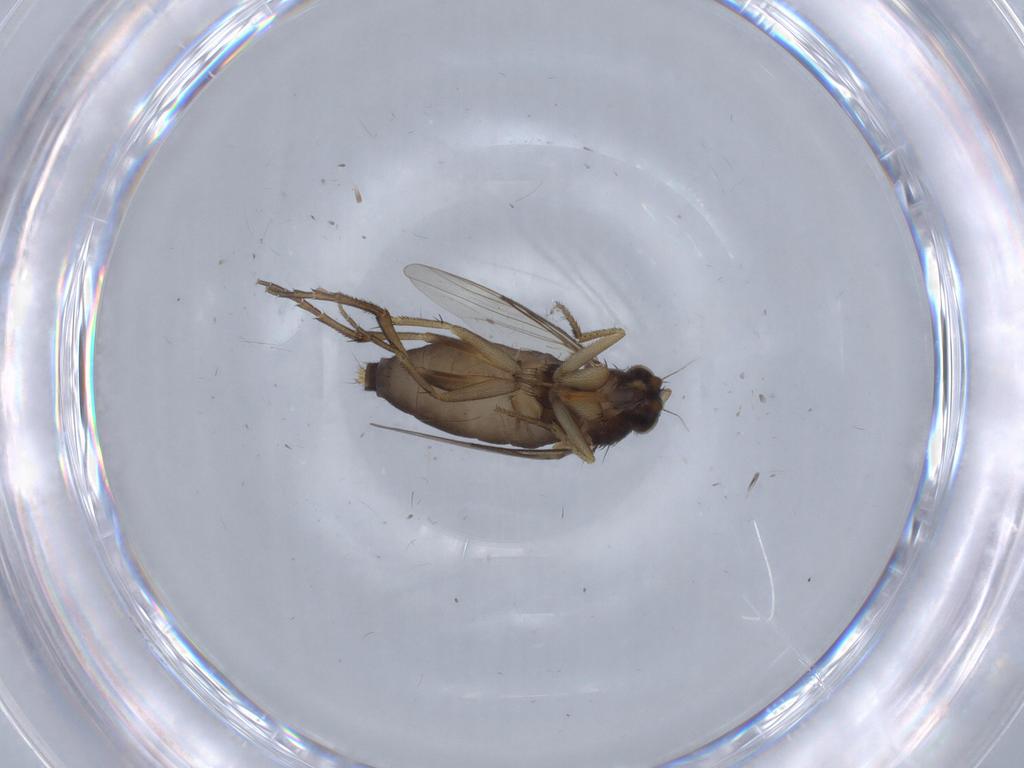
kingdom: Animalia
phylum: Arthropoda
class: Insecta
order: Diptera
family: Phoridae
